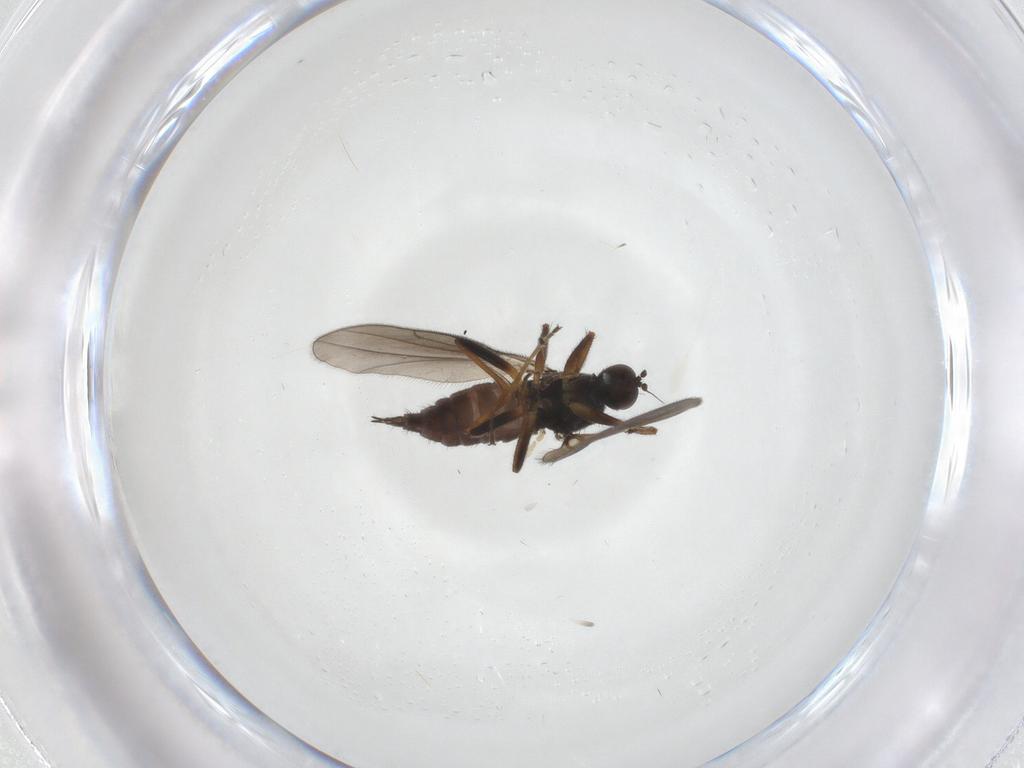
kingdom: Animalia
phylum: Arthropoda
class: Insecta
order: Diptera
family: Hybotidae
